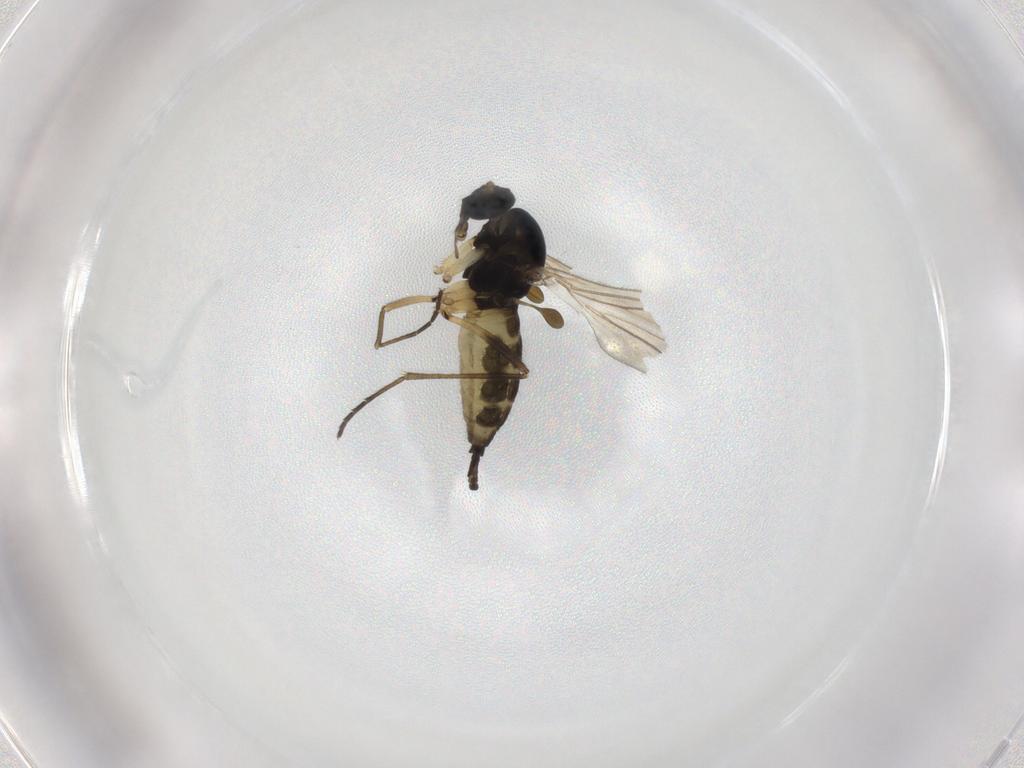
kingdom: Animalia
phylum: Arthropoda
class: Insecta
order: Diptera
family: Sciaridae
